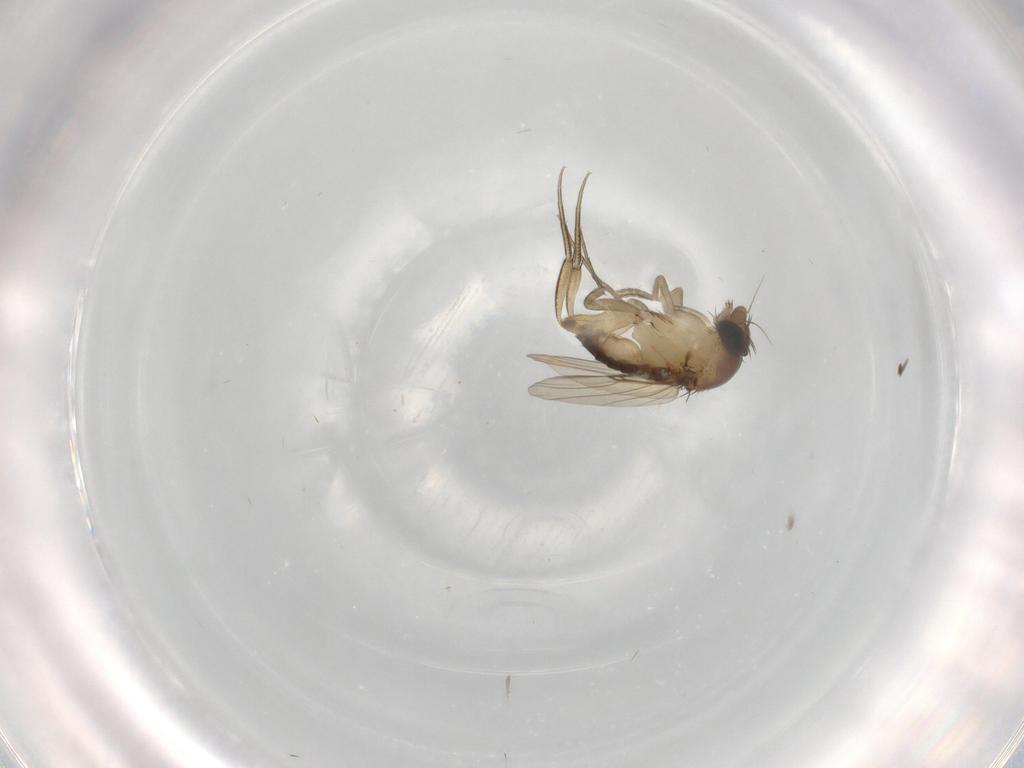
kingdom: Animalia
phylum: Arthropoda
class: Insecta
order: Diptera
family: Phoridae
